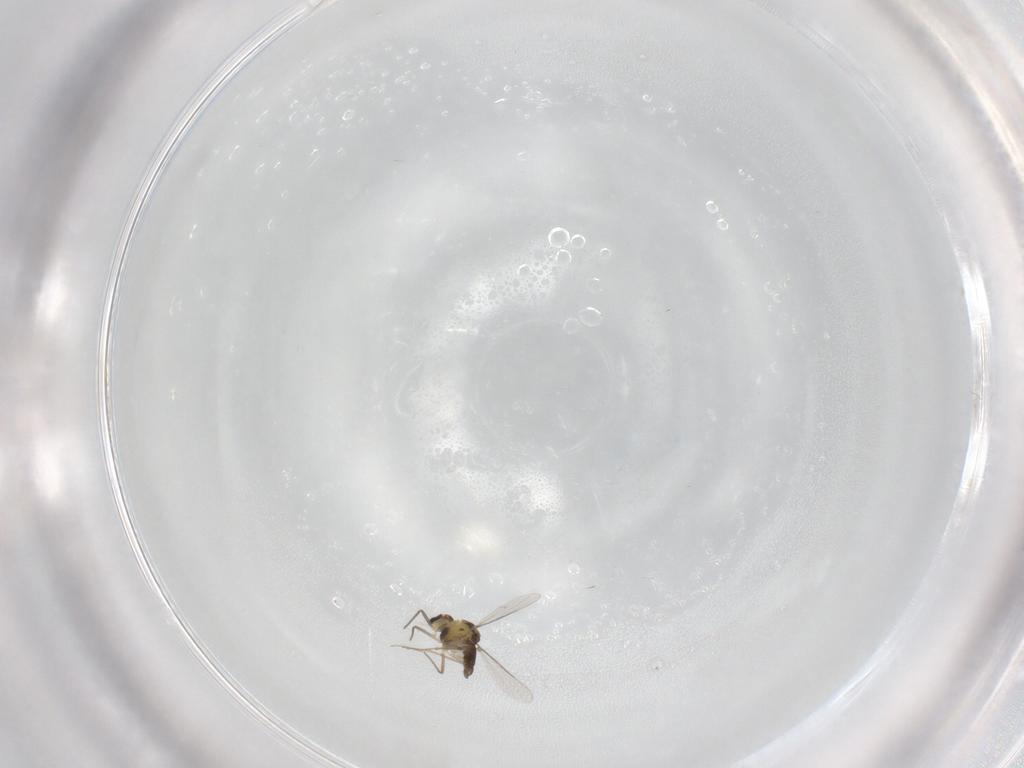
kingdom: Animalia
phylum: Arthropoda
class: Insecta
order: Diptera
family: Chironomidae
